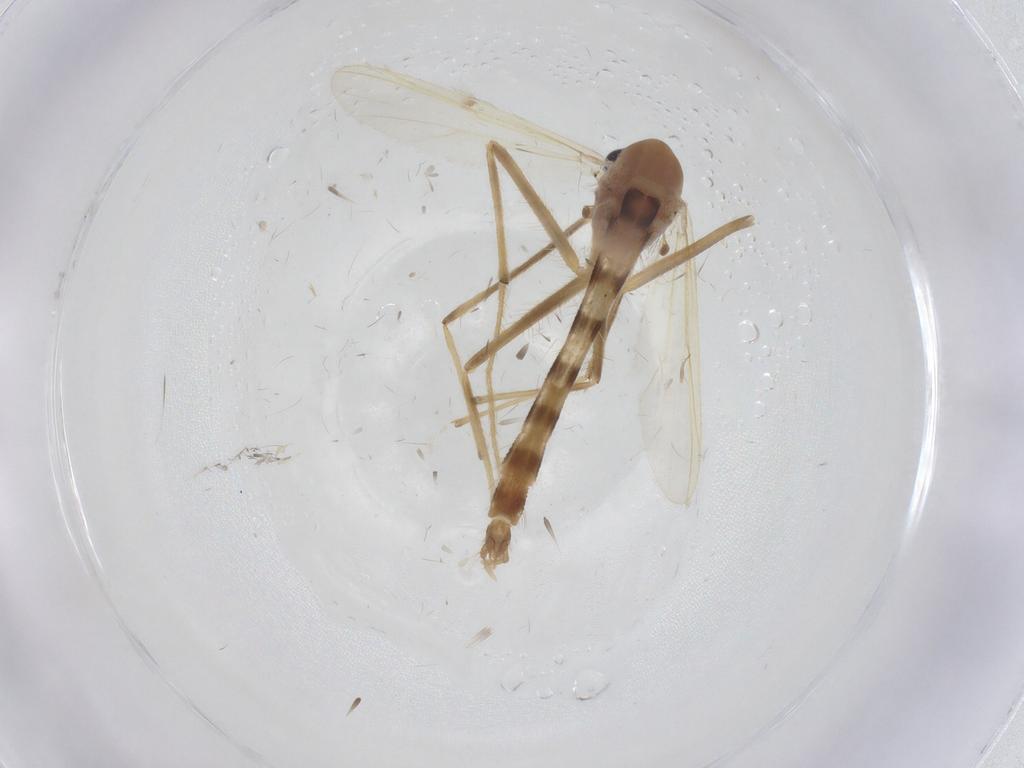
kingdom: Animalia
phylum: Arthropoda
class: Insecta
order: Diptera
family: Chironomidae
